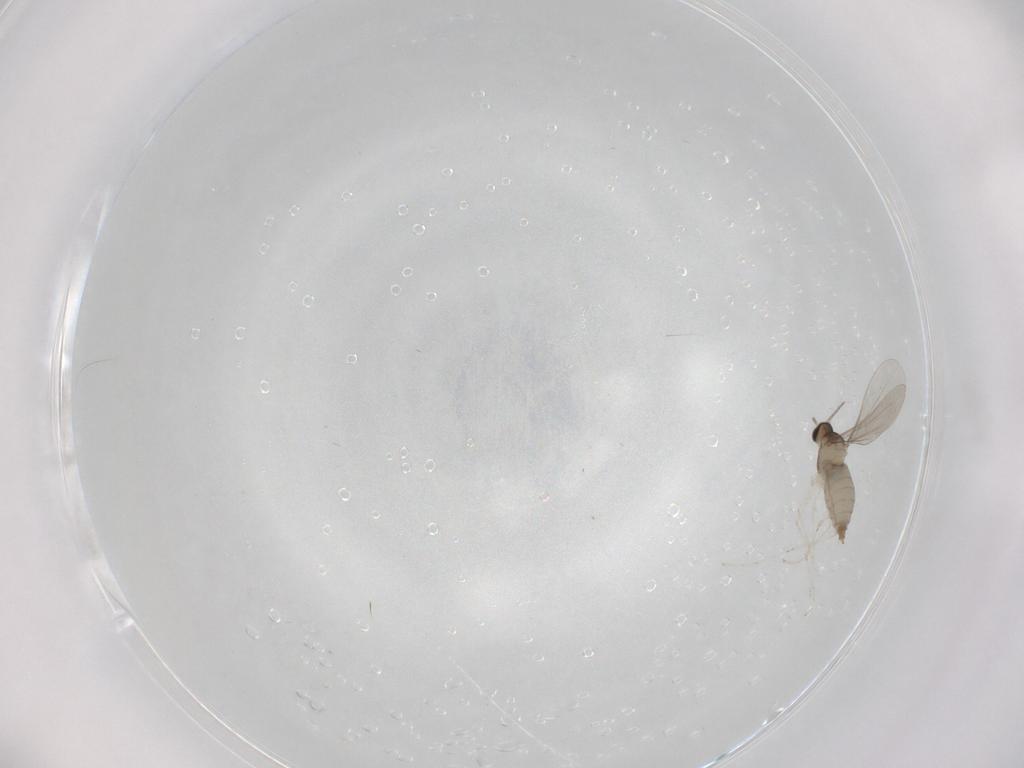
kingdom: Animalia
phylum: Arthropoda
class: Insecta
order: Diptera
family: Cecidomyiidae
